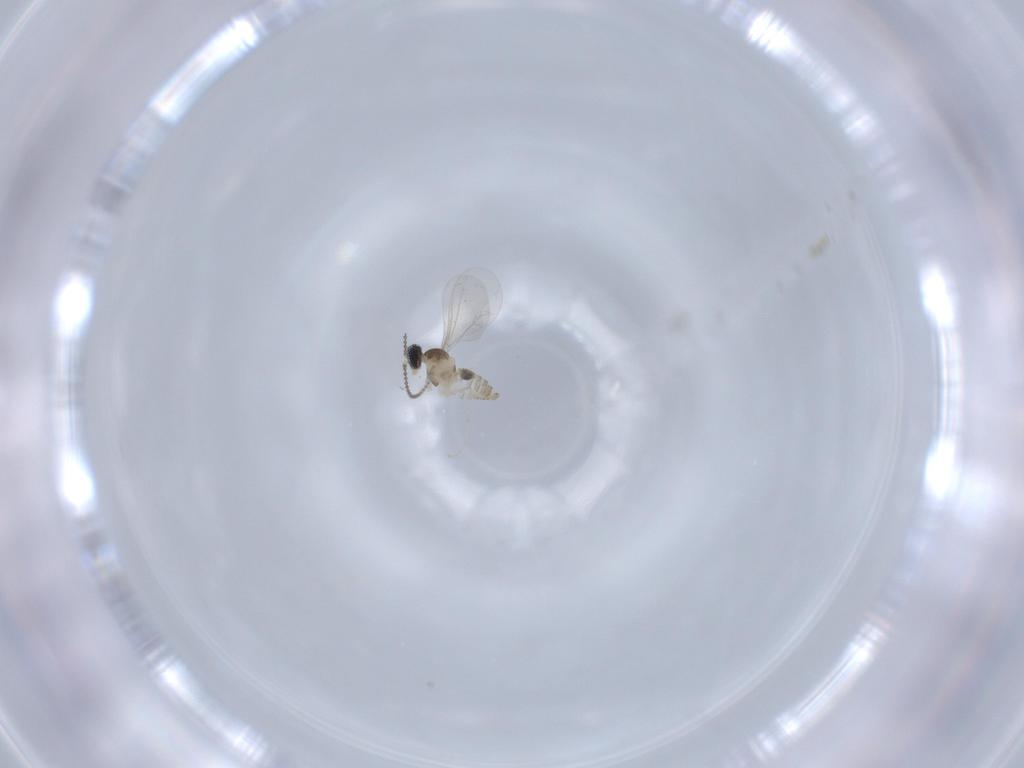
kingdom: Animalia
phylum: Arthropoda
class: Insecta
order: Diptera
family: Cecidomyiidae
